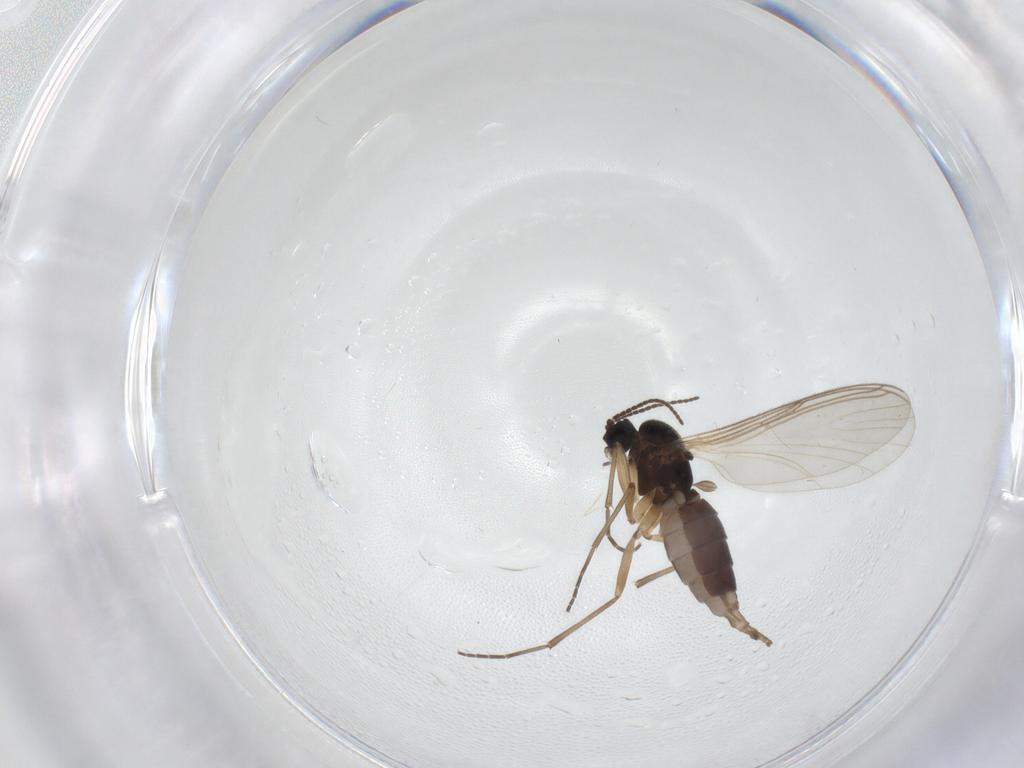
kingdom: Animalia
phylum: Arthropoda
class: Insecta
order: Diptera
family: Sciaridae
